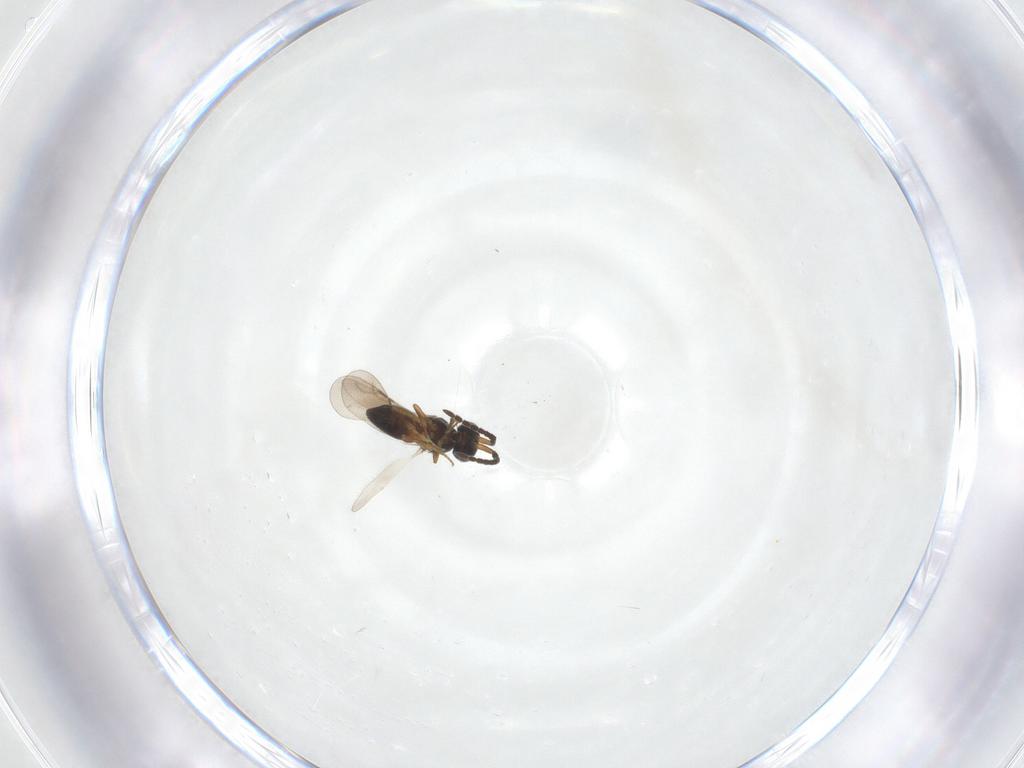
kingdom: Animalia
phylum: Arthropoda
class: Insecta
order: Hymenoptera
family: Ceraphronidae
